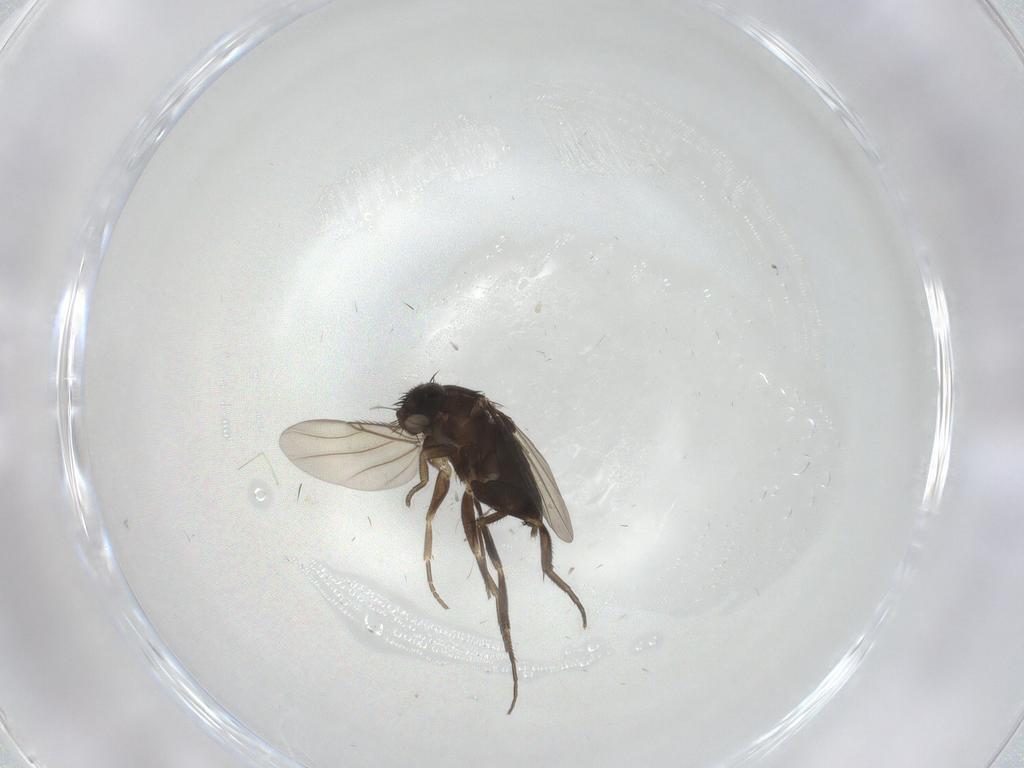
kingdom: Animalia
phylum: Arthropoda
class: Insecta
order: Diptera
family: Phoridae
